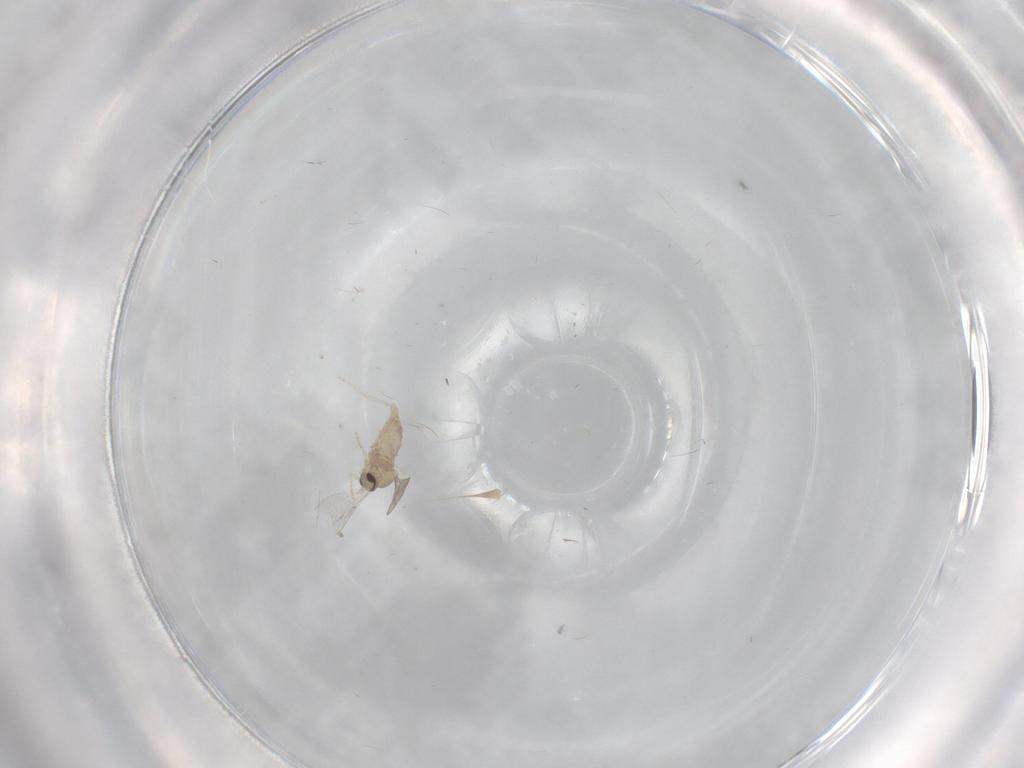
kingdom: Animalia
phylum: Arthropoda
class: Insecta
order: Diptera
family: Cecidomyiidae
